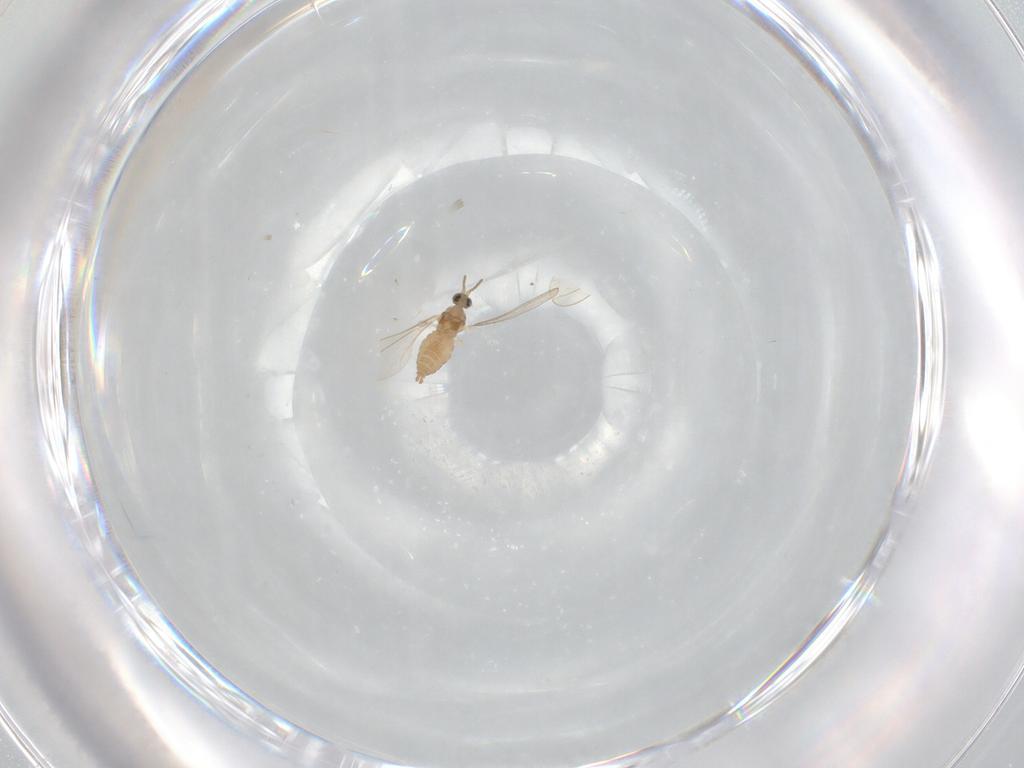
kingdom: Animalia
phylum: Arthropoda
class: Insecta
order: Diptera
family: Cecidomyiidae
